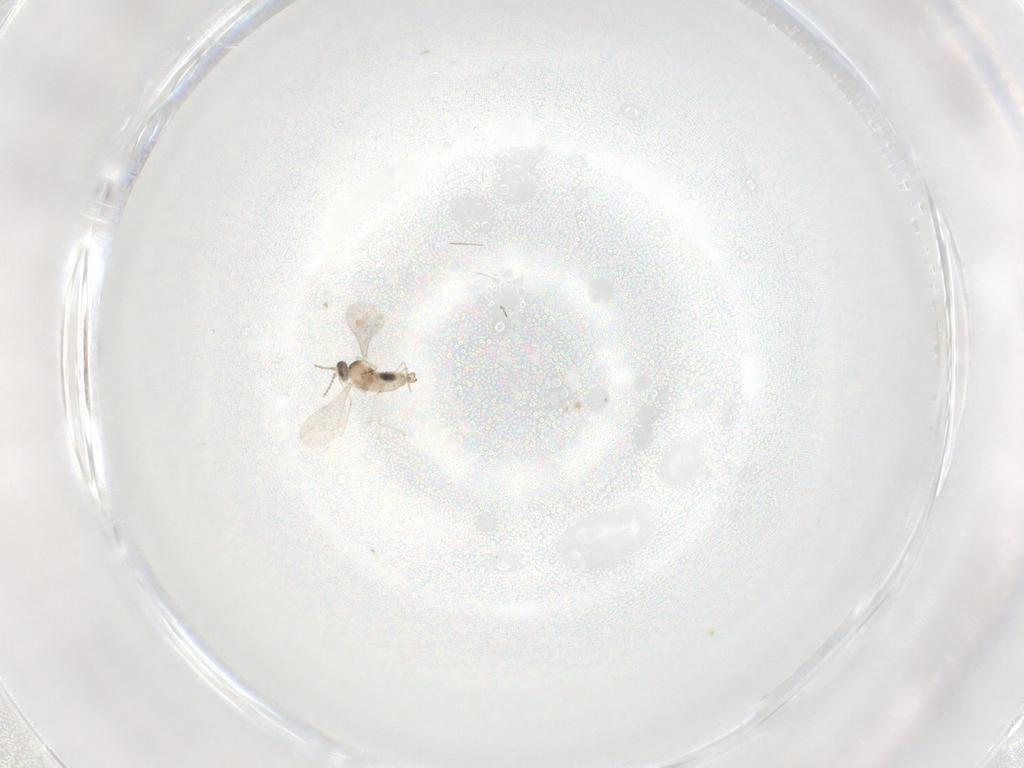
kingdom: Animalia
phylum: Arthropoda
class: Insecta
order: Diptera
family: Cecidomyiidae
